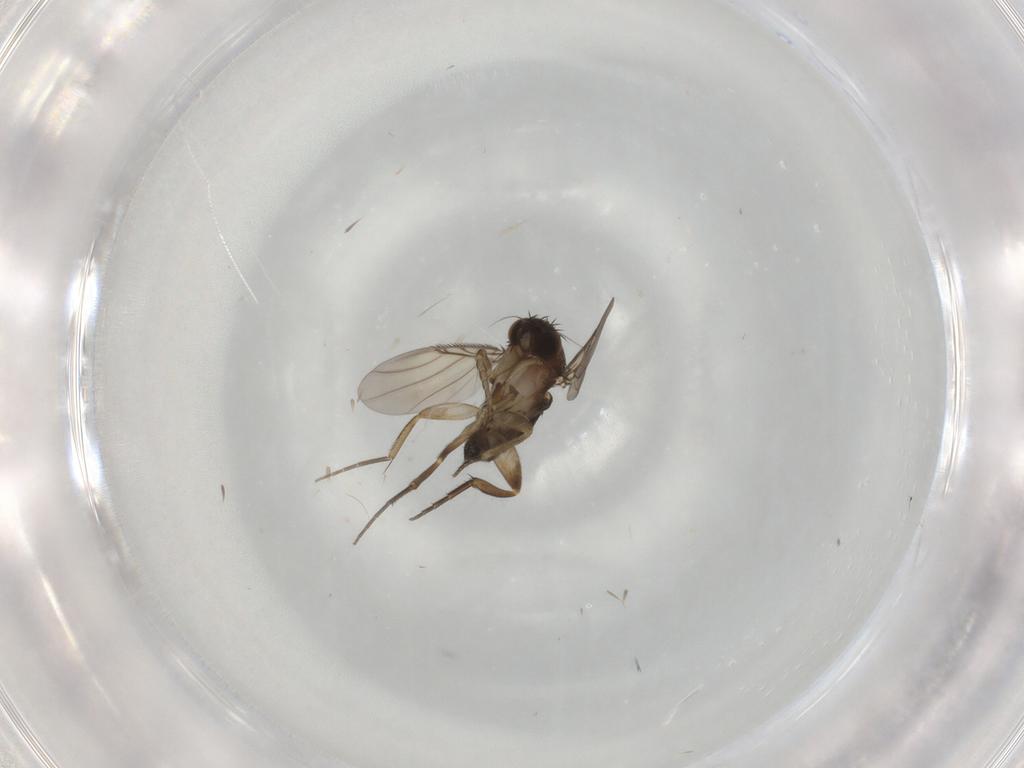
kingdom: Animalia
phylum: Arthropoda
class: Insecta
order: Diptera
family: Phoridae
